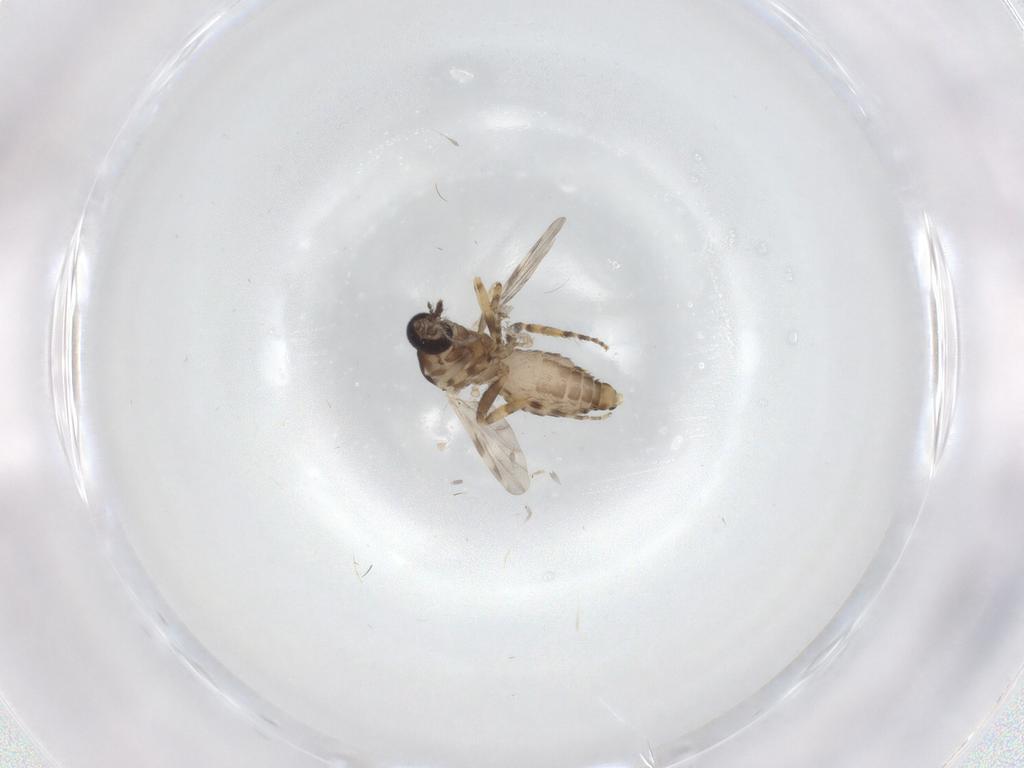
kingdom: Animalia
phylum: Arthropoda
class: Insecta
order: Diptera
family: Ceratopogonidae
